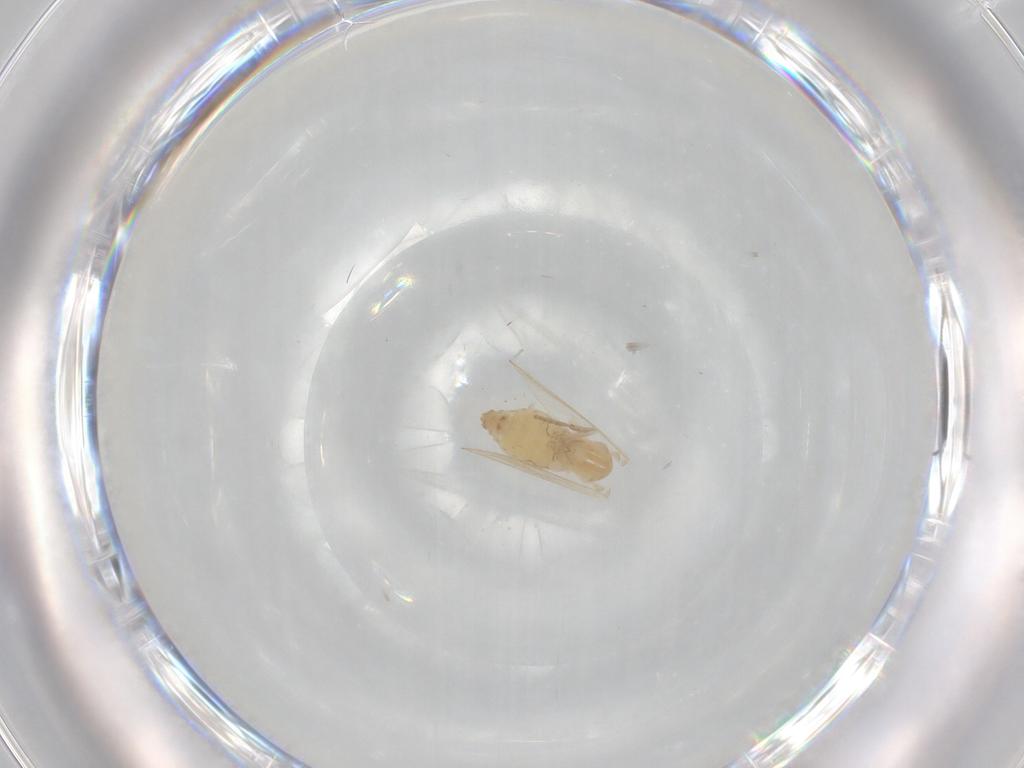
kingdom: Animalia
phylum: Arthropoda
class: Insecta
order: Diptera
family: Psychodidae
